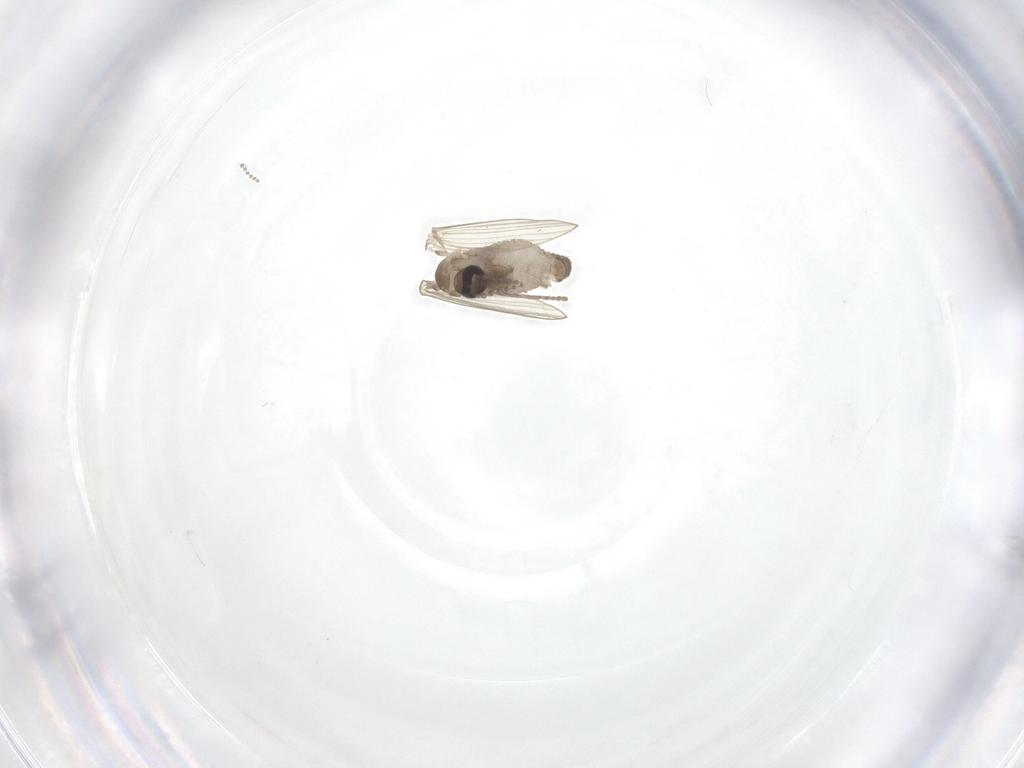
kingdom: Animalia
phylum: Arthropoda
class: Insecta
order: Diptera
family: Psychodidae
